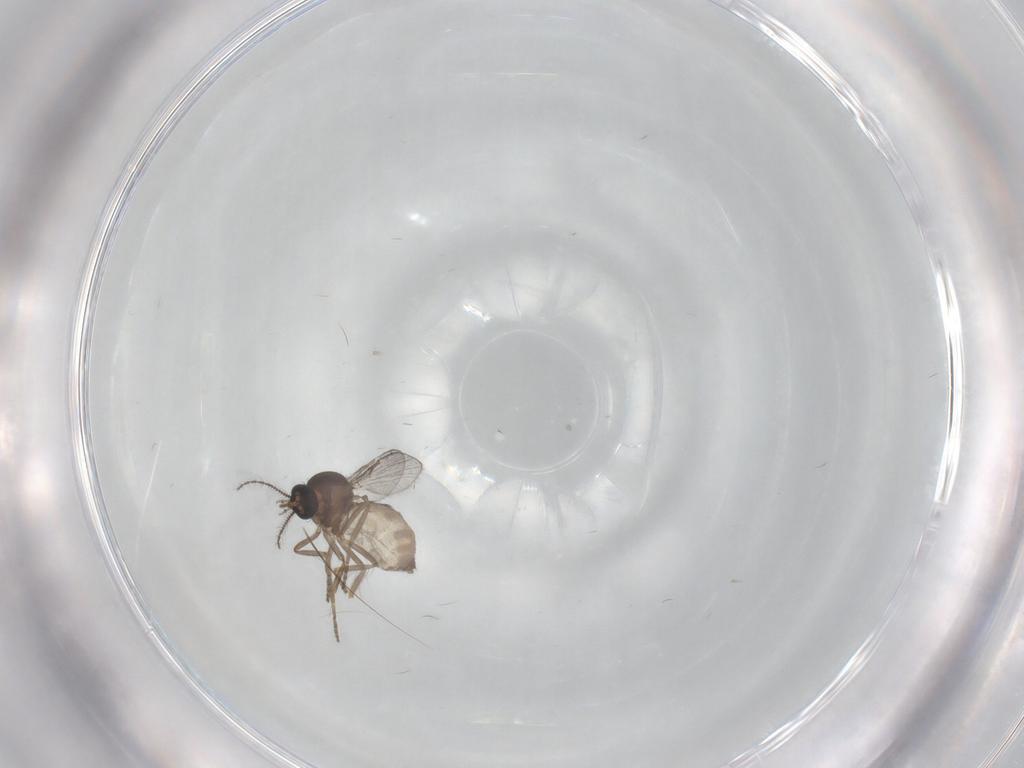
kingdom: Animalia
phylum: Arthropoda
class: Insecta
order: Diptera
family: Ceratopogonidae
